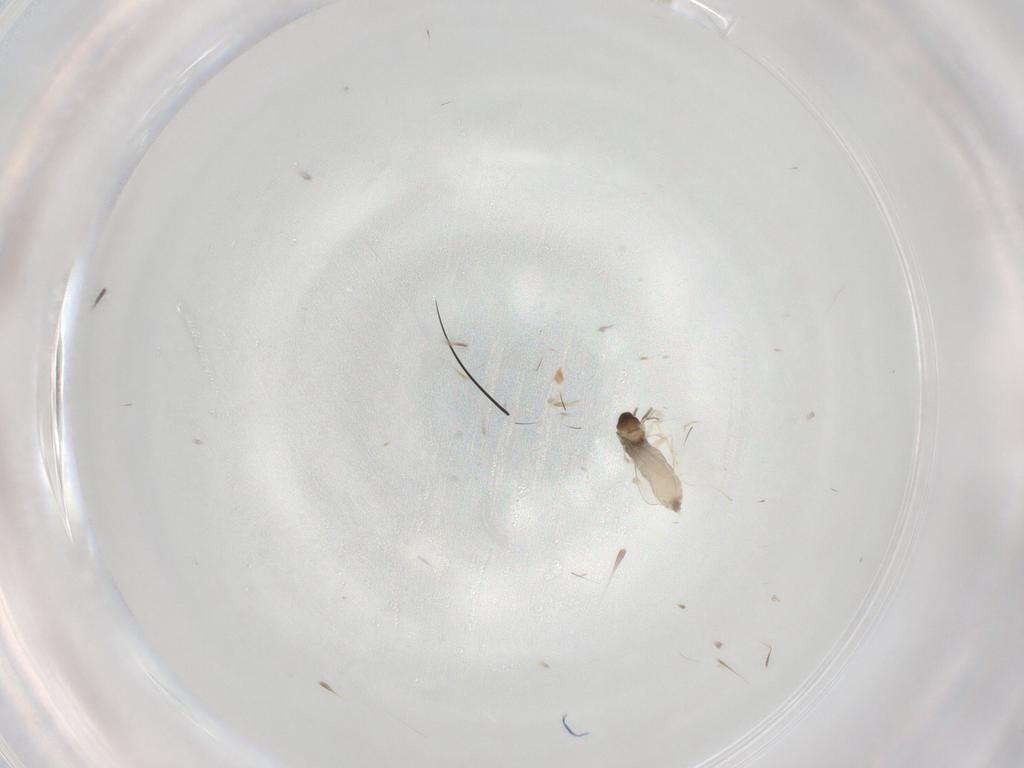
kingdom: Animalia
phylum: Arthropoda
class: Insecta
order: Diptera
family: Cecidomyiidae
